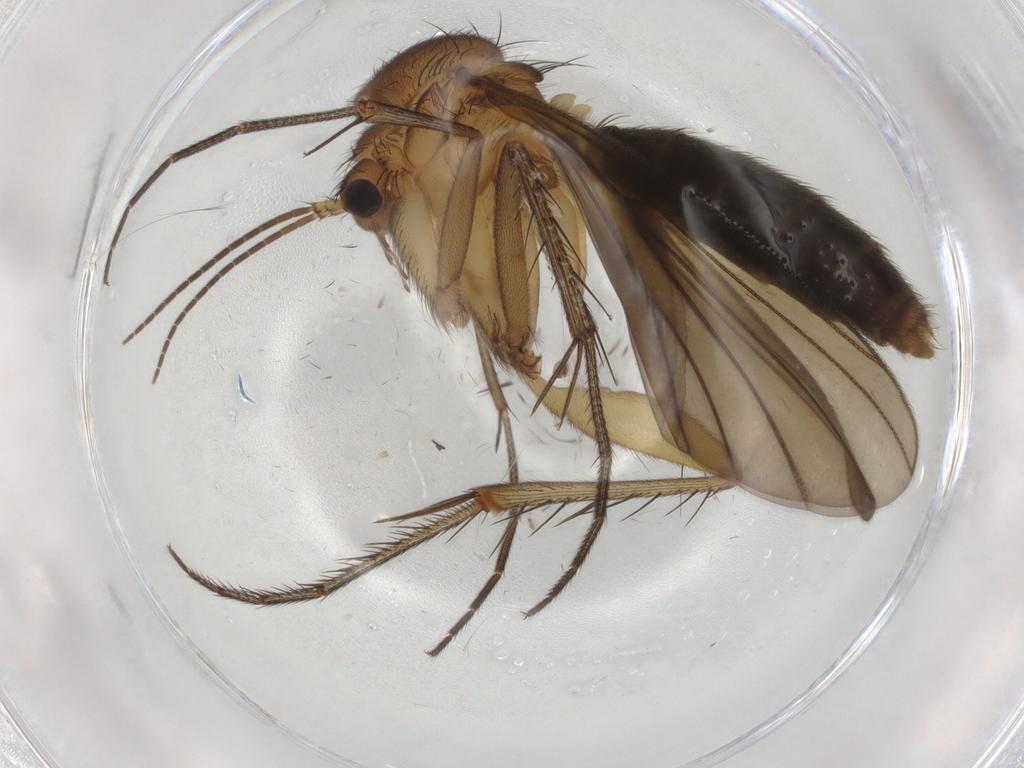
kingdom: Animalia
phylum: Arthropoda
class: Insecta
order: Diptera
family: Mycetophilidae
